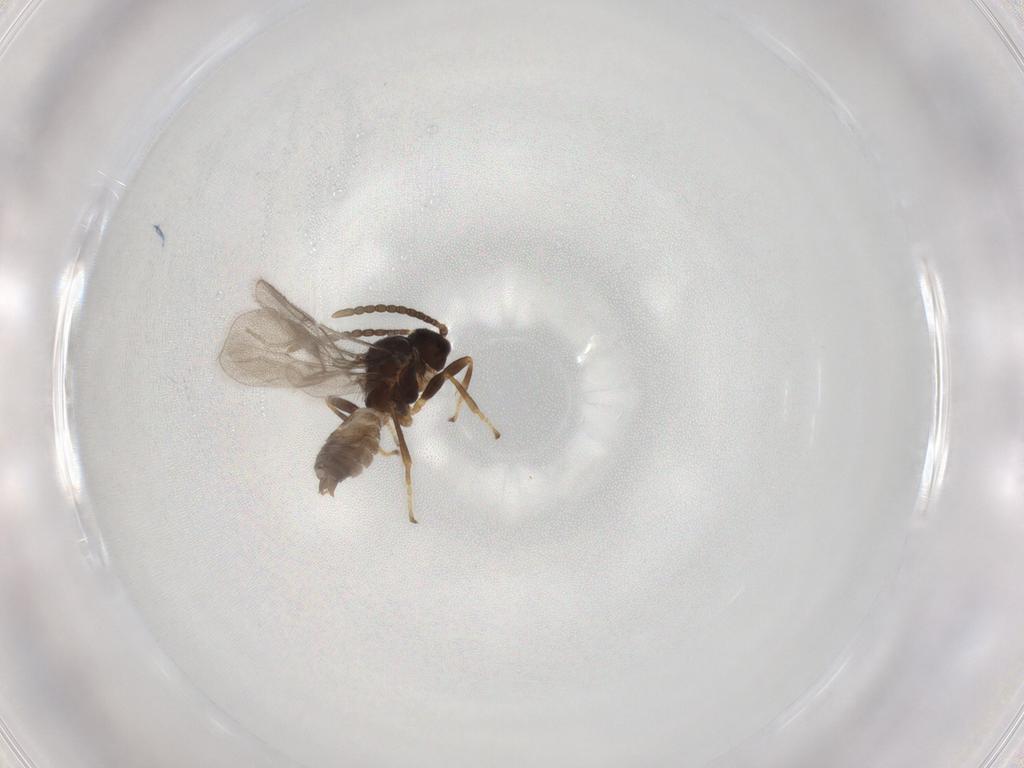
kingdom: Animalia
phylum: Arthropoda
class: Insecta
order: Hymenoptera
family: Braconidae
